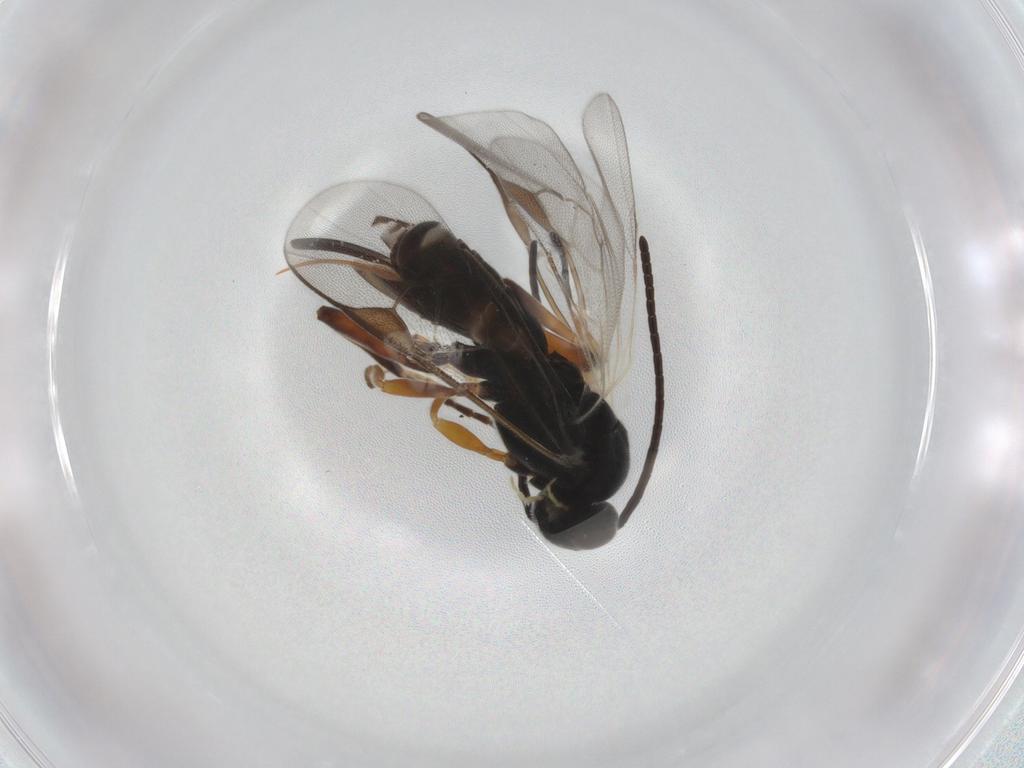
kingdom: Animalia
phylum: Arthropoda
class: Insecta
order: Hymenoptera
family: Braconidae
